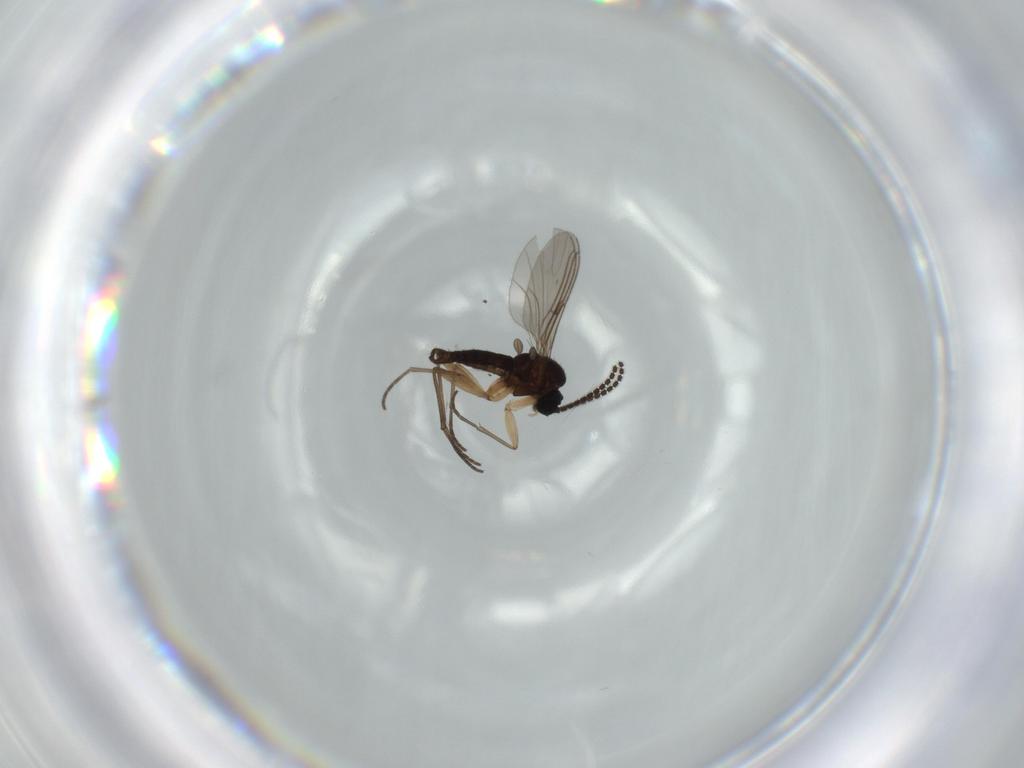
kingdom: Animalia
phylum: Arthropoda
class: Insecta
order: Diptera
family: Sciaridae
